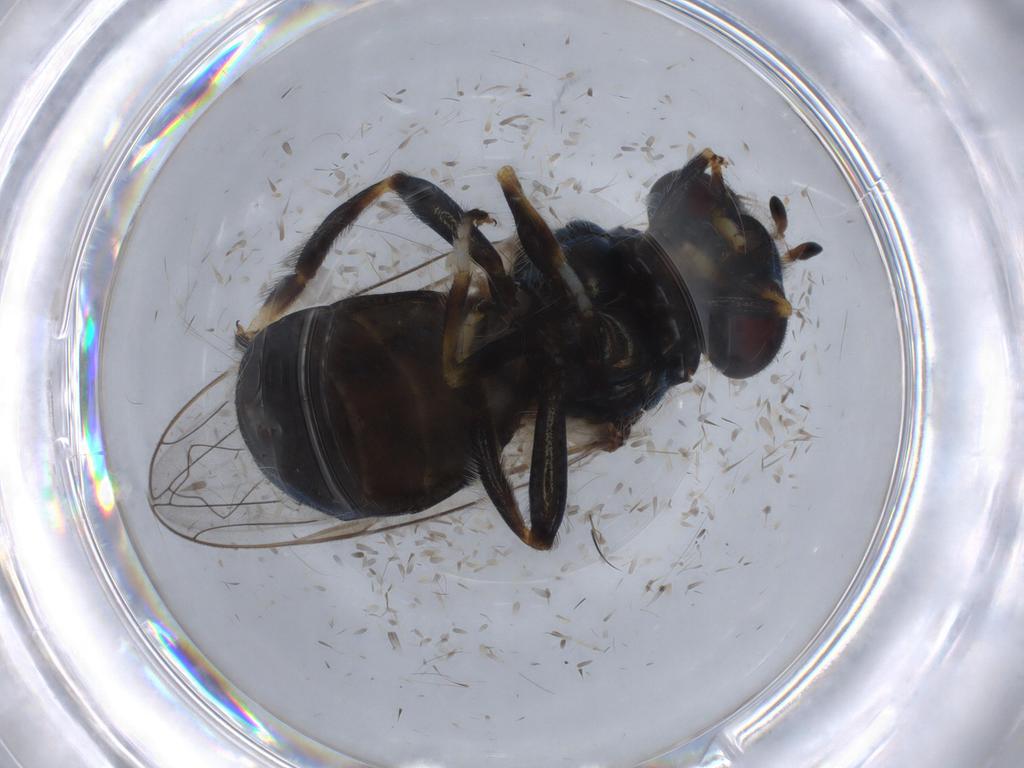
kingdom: Animalia
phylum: Arthropoda
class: Insecta
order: Diptera
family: Syrphidae
